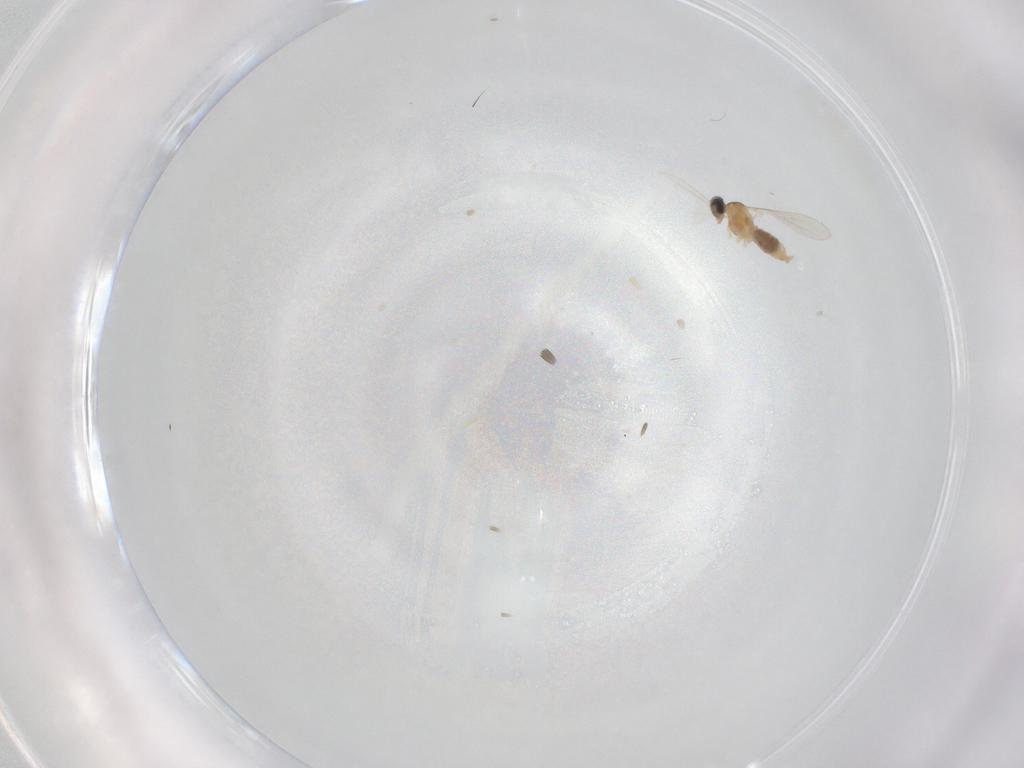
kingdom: Animalia
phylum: Arthropoda
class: Insecta
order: Diptera
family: Cecidomyiidae
